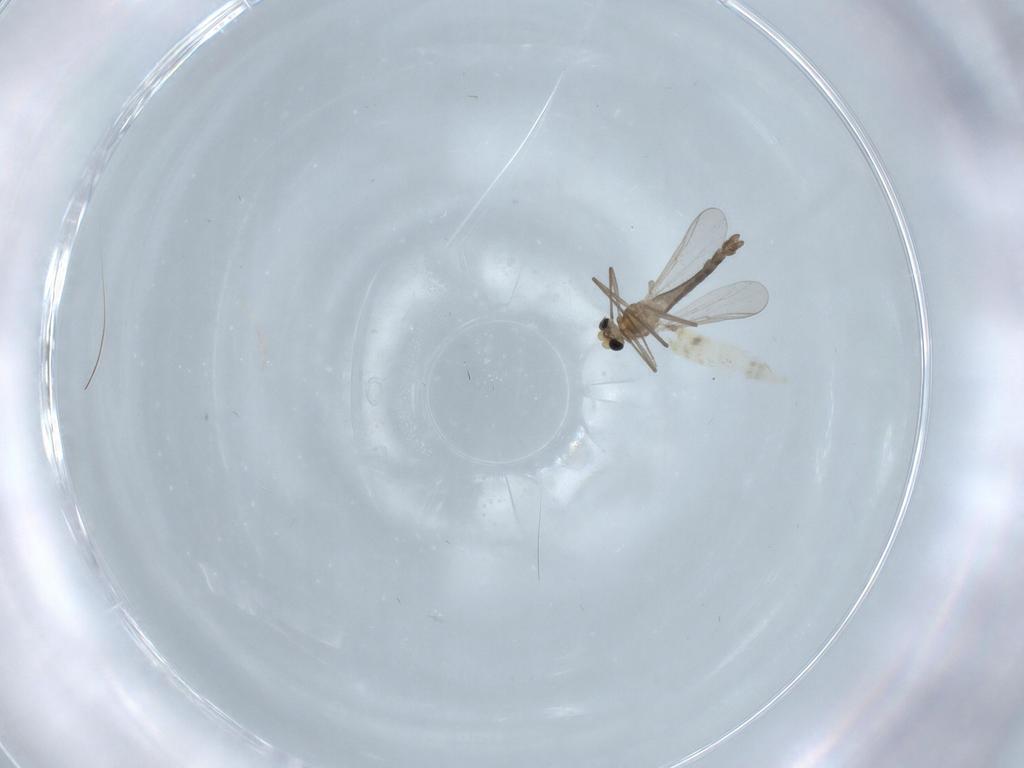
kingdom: Animalia
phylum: Arthropoda
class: Insecta
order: Diptera
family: Chironomidae
